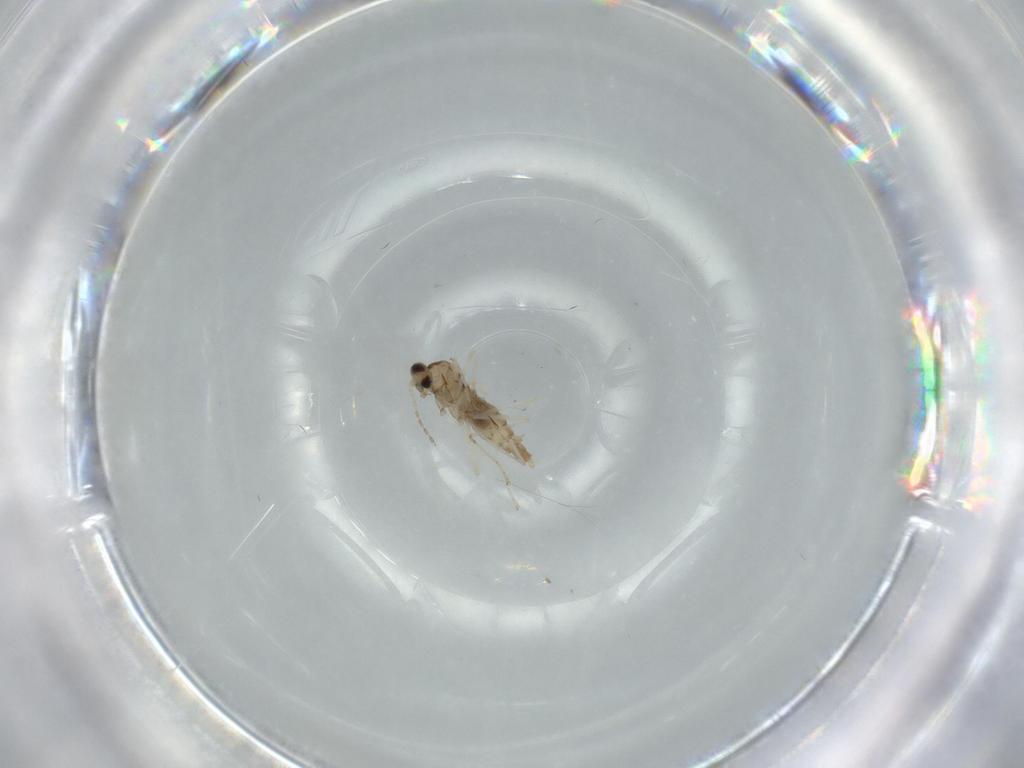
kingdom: Animalia
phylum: Arthropoda
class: Insecta
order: Diptera
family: Cecidomyiidae
